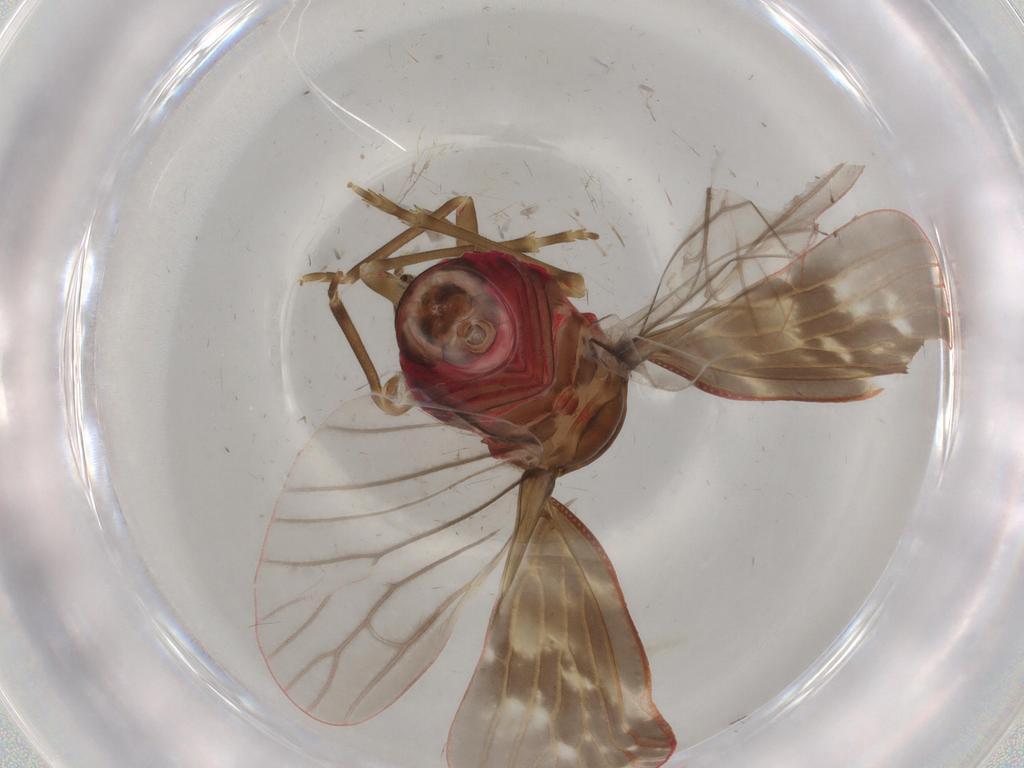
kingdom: Animalia
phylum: Arthropoda
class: Insecta
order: Hemiptera
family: Achilidae
